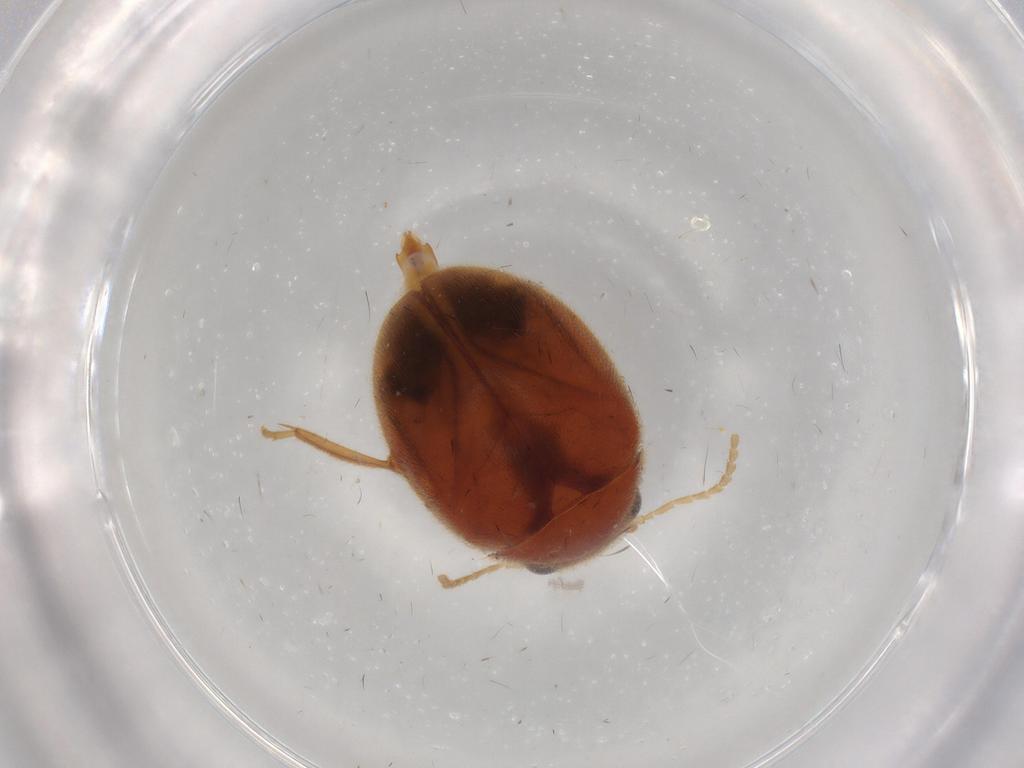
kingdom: Animalia
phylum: Arthropoda
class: Insecta
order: Coleoptera
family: Scirtidae
